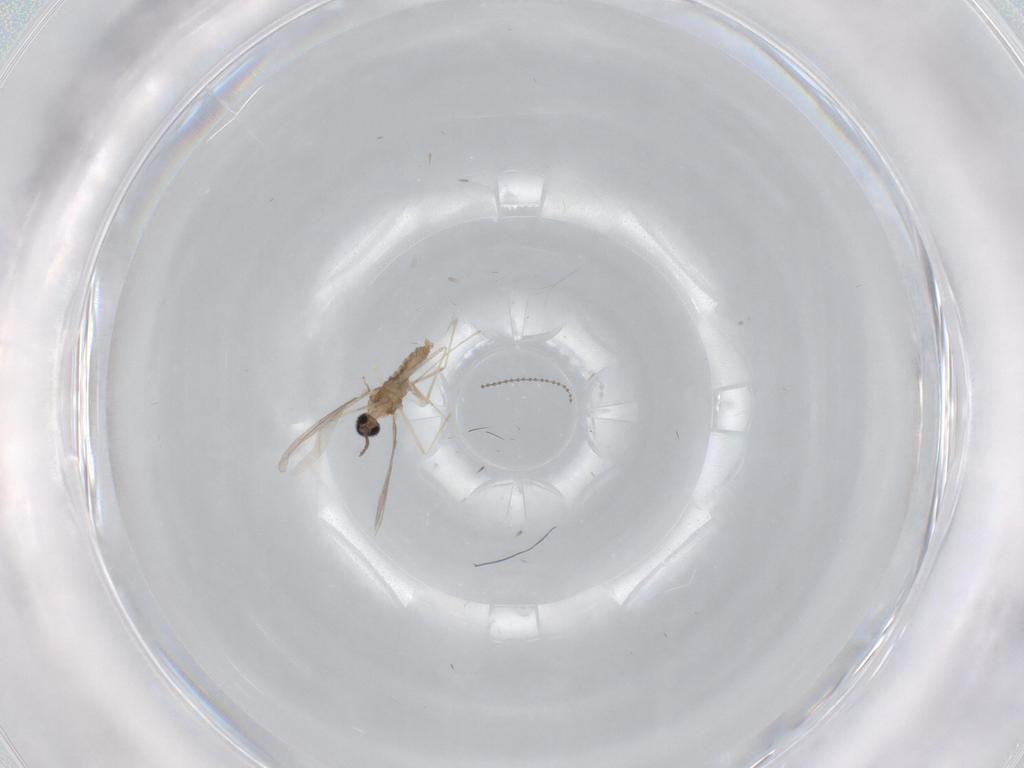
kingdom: Animalia
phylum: Arthropoda
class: Insecta
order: Diptera
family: Cecidomyiidae
